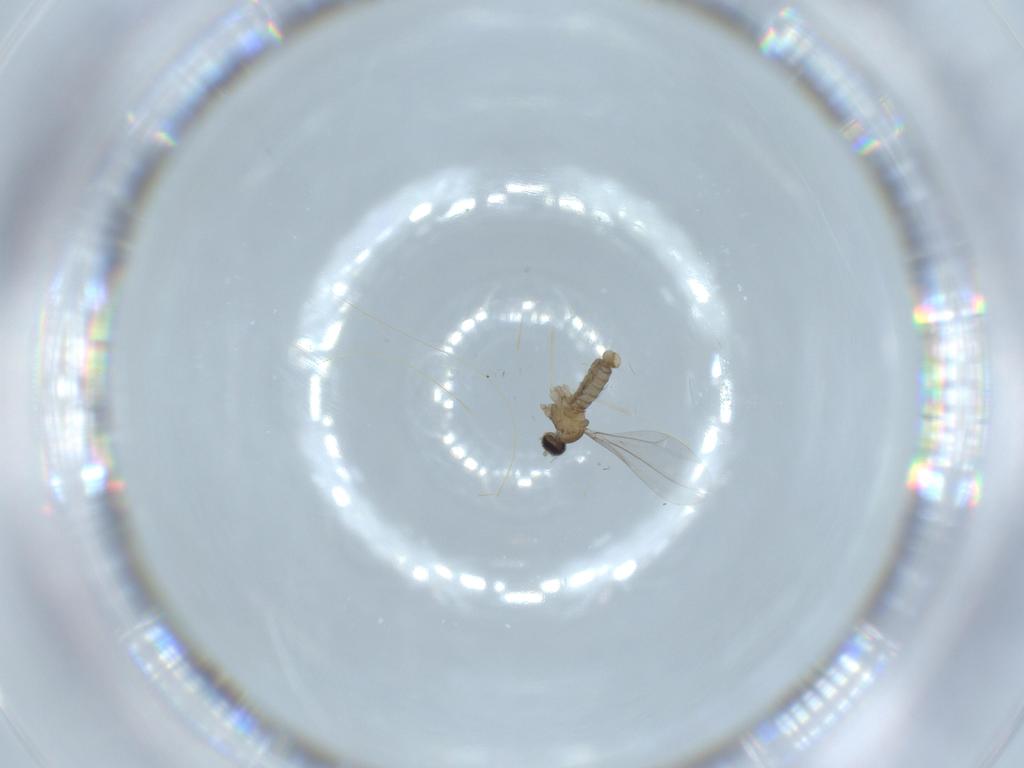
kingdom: Animalia
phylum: Arthropoda
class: Insecta
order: Diptera
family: Cecidomyiidae
